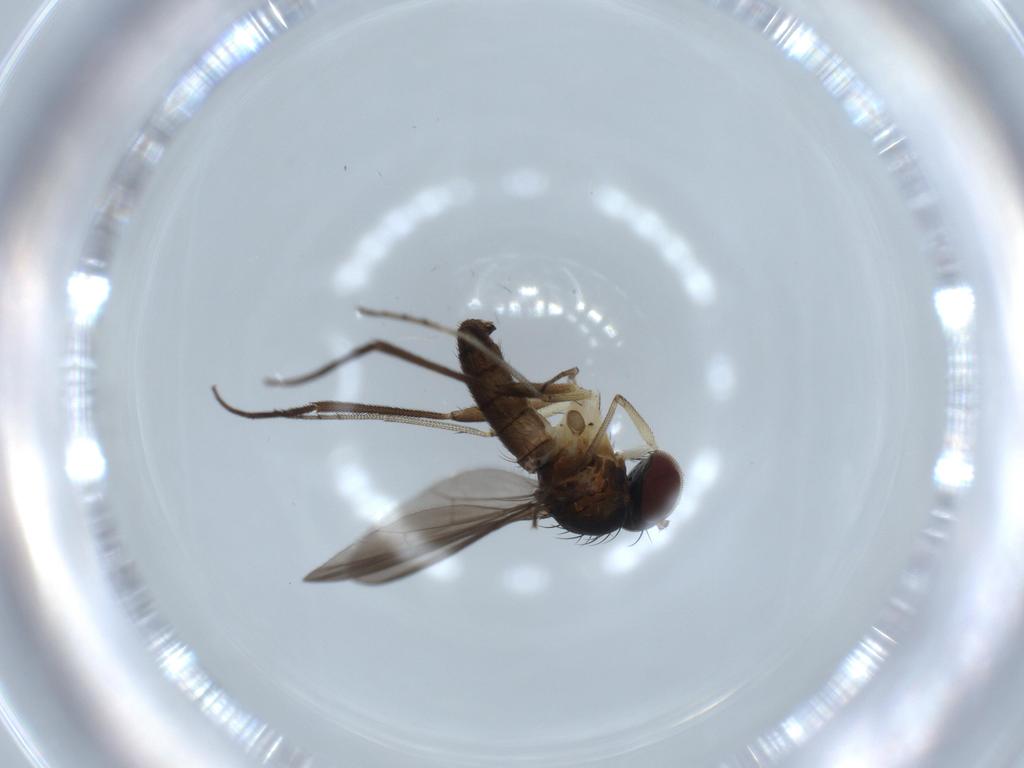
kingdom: Animalia
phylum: Arthropoda
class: Insecta
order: Diptera
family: Dolichopodidae
